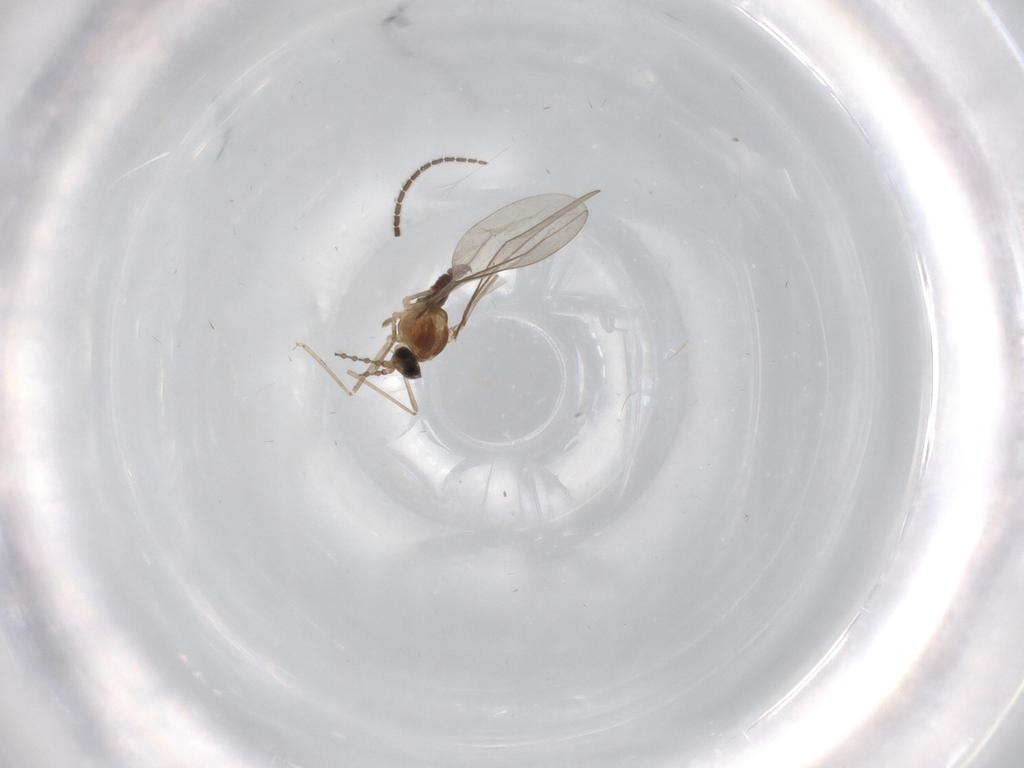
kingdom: Animalia
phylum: Arthropoda
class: Insecta
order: Diptera
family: Sciaridae
